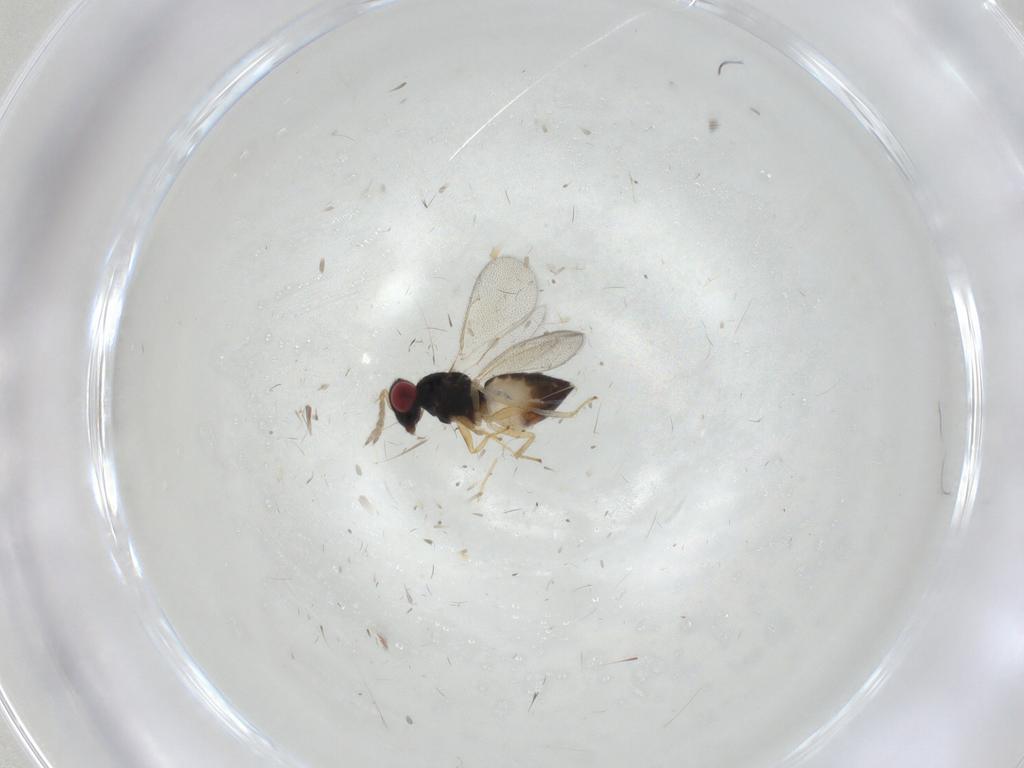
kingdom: Animalia
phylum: Arthropoda
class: Insecta
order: Hymenoptera
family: Eulophidae
